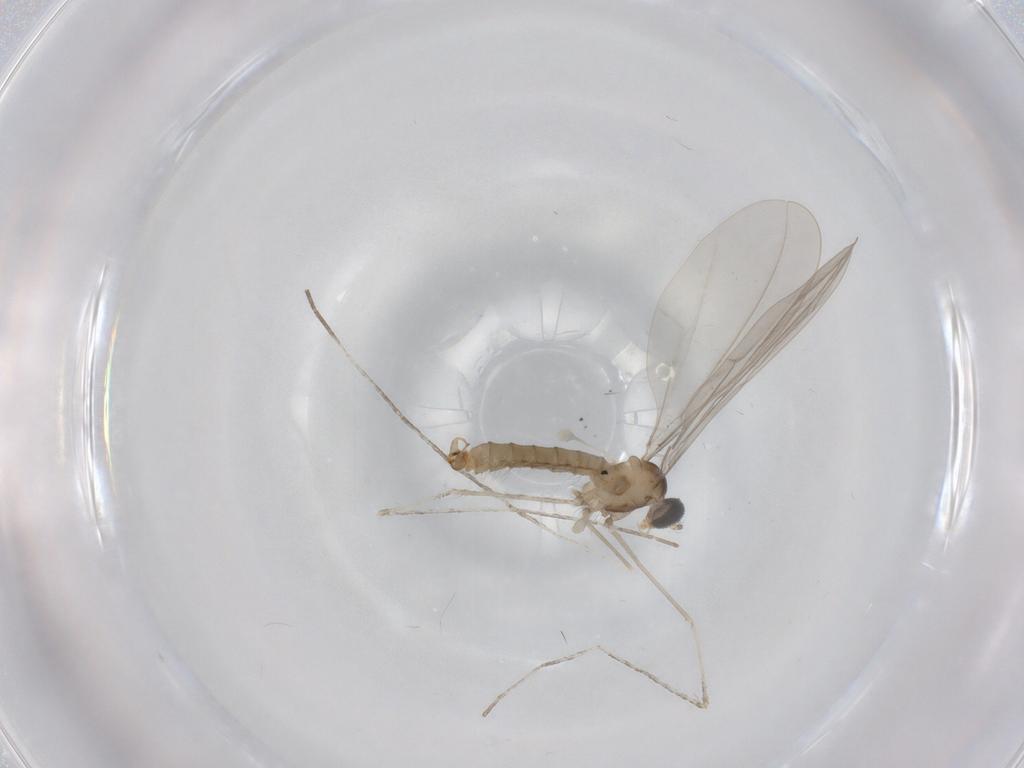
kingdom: Animalia
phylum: Arthropoda
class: Insecta
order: Diptera
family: Cecidomyiidae
